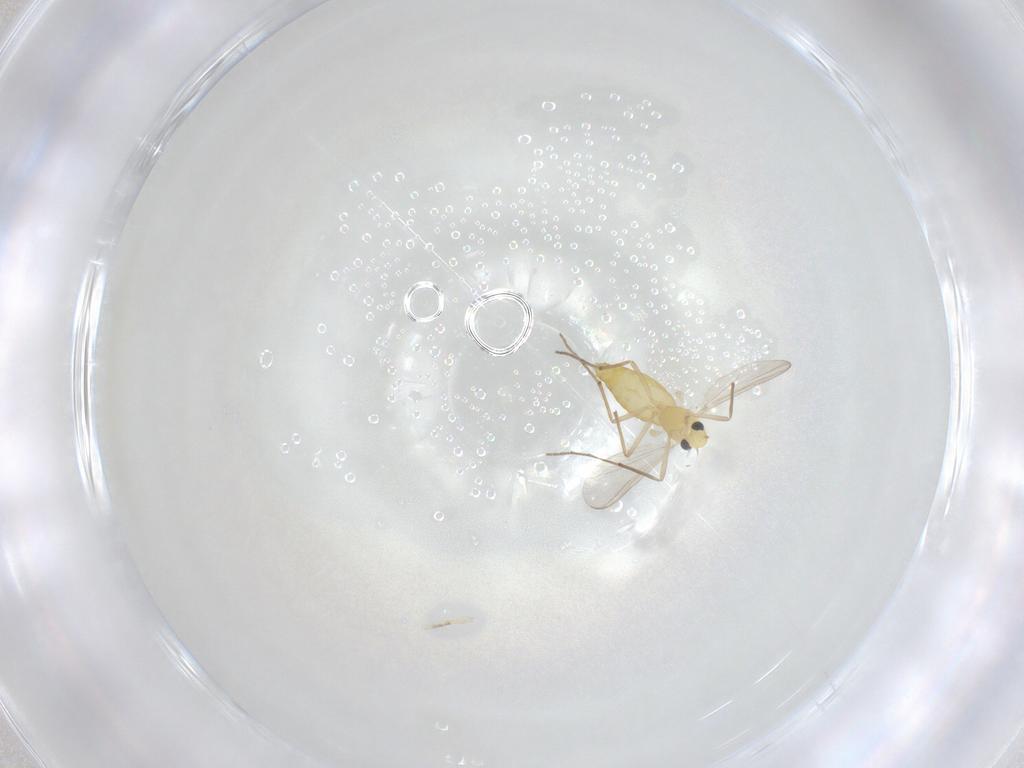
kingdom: Animalia
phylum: Arthropoda
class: Insecta
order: Diptera
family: Chironomidae
